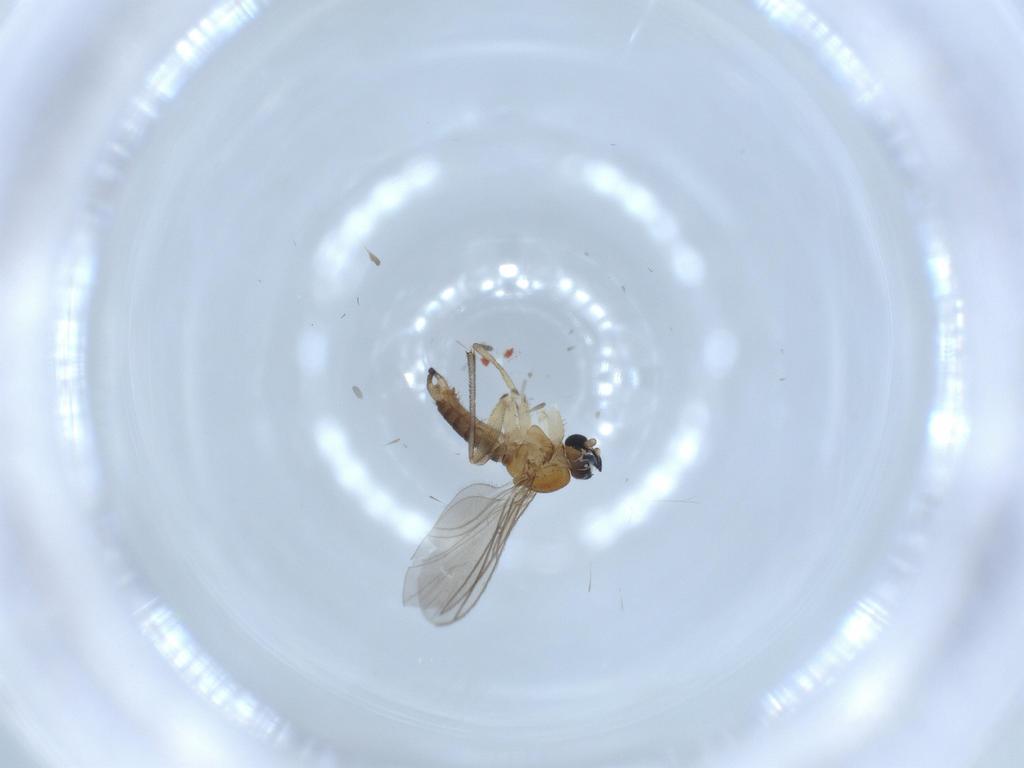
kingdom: Animalia
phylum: Arthropoda
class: Insecta
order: Diptera
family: Sciaridae
